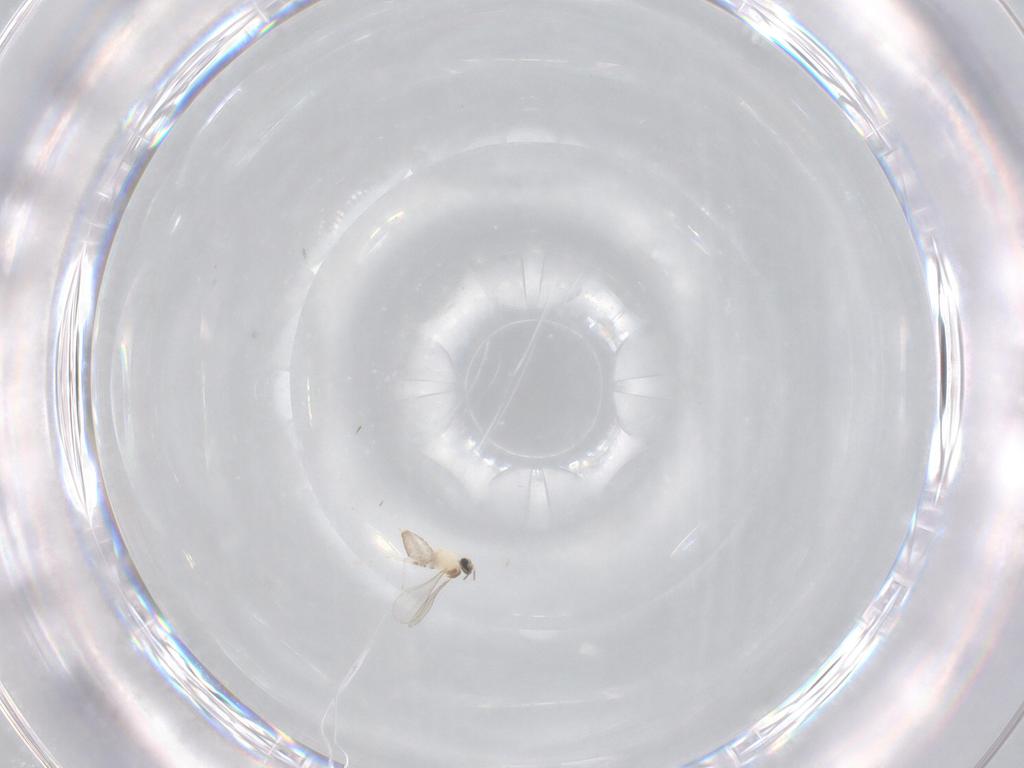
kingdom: Animalia
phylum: Arthropoda
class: Insecta
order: Diptera
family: Cecidomyiidae
